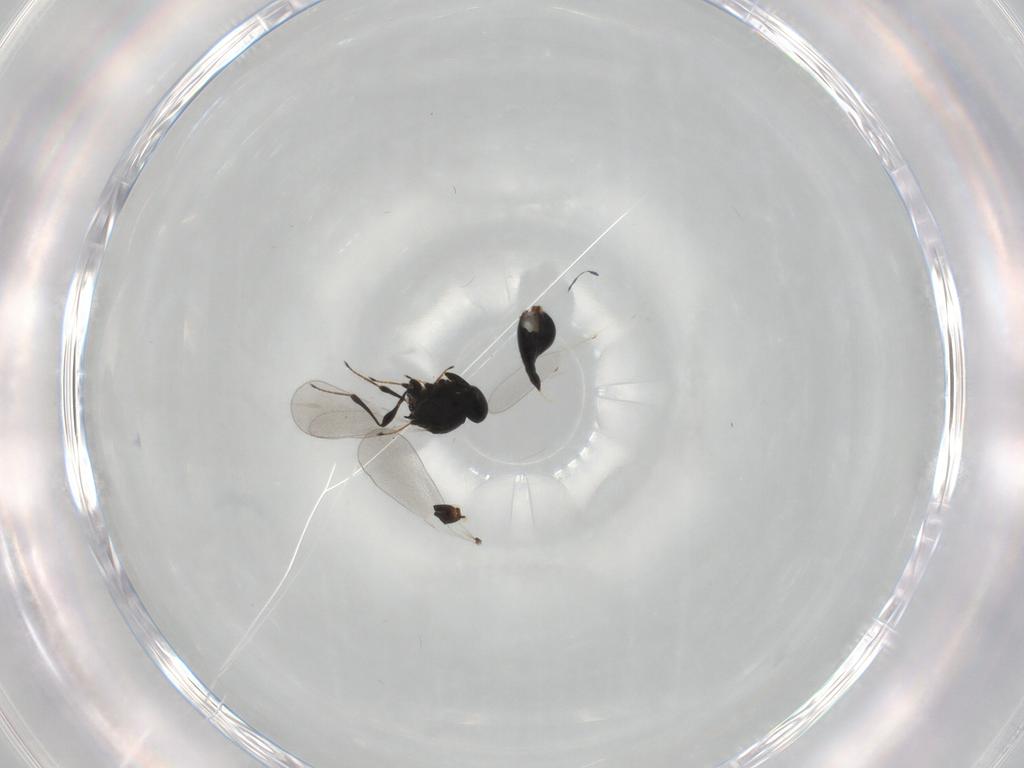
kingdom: Animalia
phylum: Arthropoda
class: Insecta
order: Hymenoptera
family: Platygastridae
